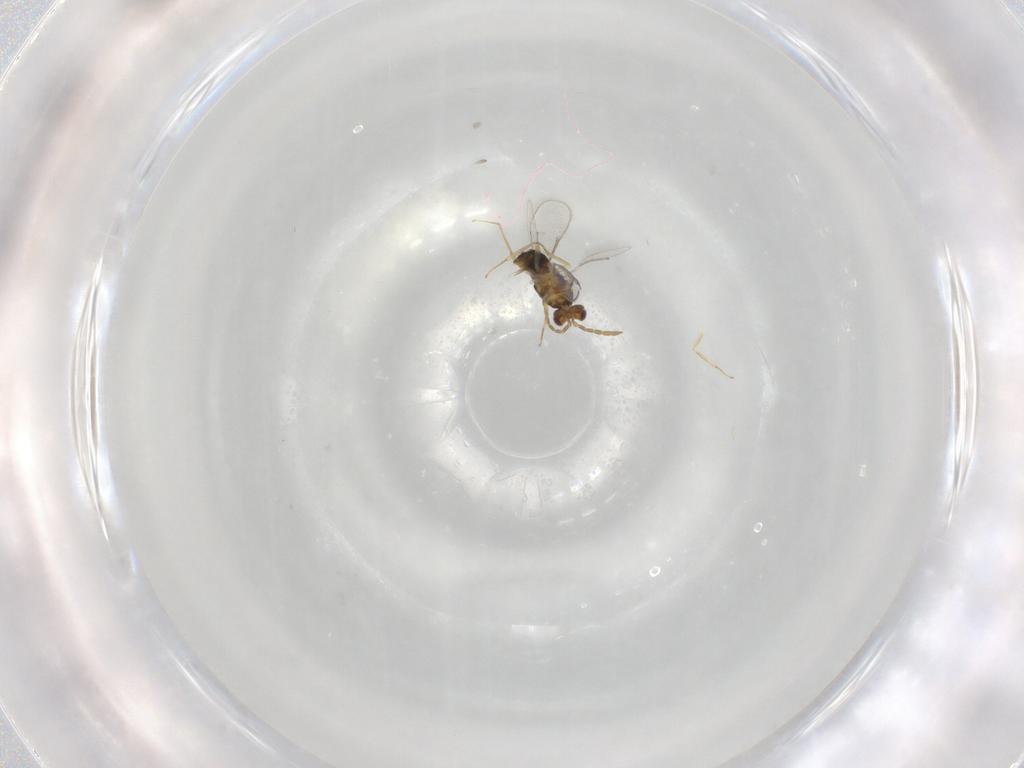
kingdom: Animalia
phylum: Arthropoda
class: Insecta
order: Hymenoptera
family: Aphelinidae
